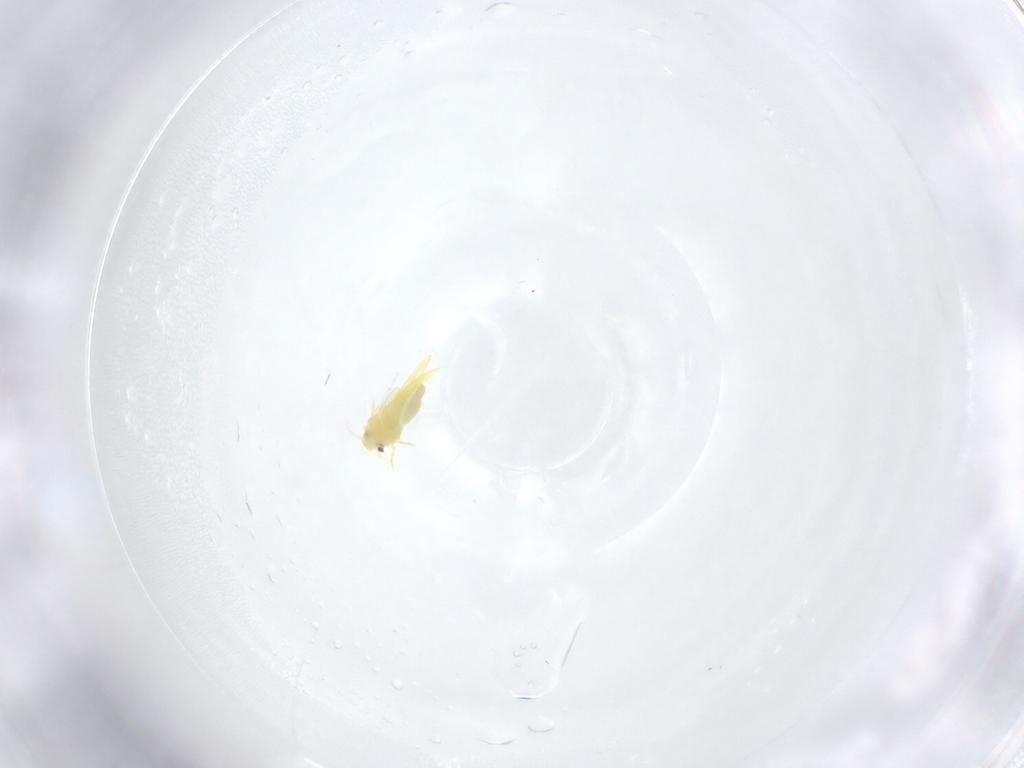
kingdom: Animalia
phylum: Arthropoda
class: Insecta
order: Hemiptera
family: Aleyrodidae
